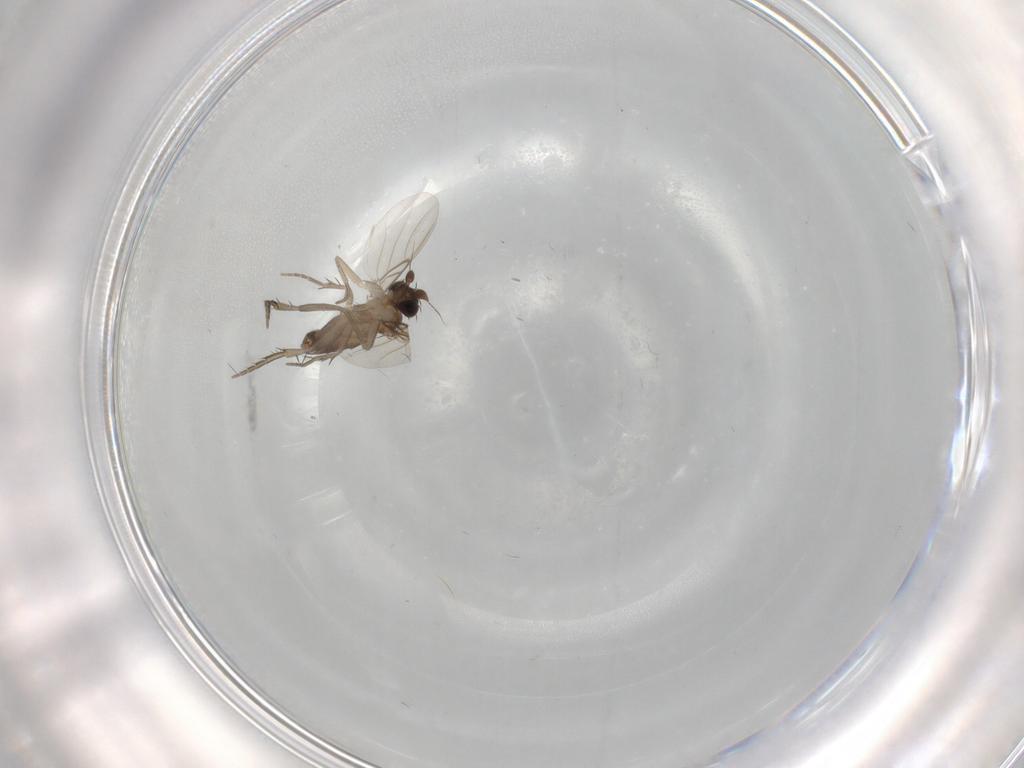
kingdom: Animalia
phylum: Arthropoda
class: Insecta
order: Diptera
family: Phoridae
